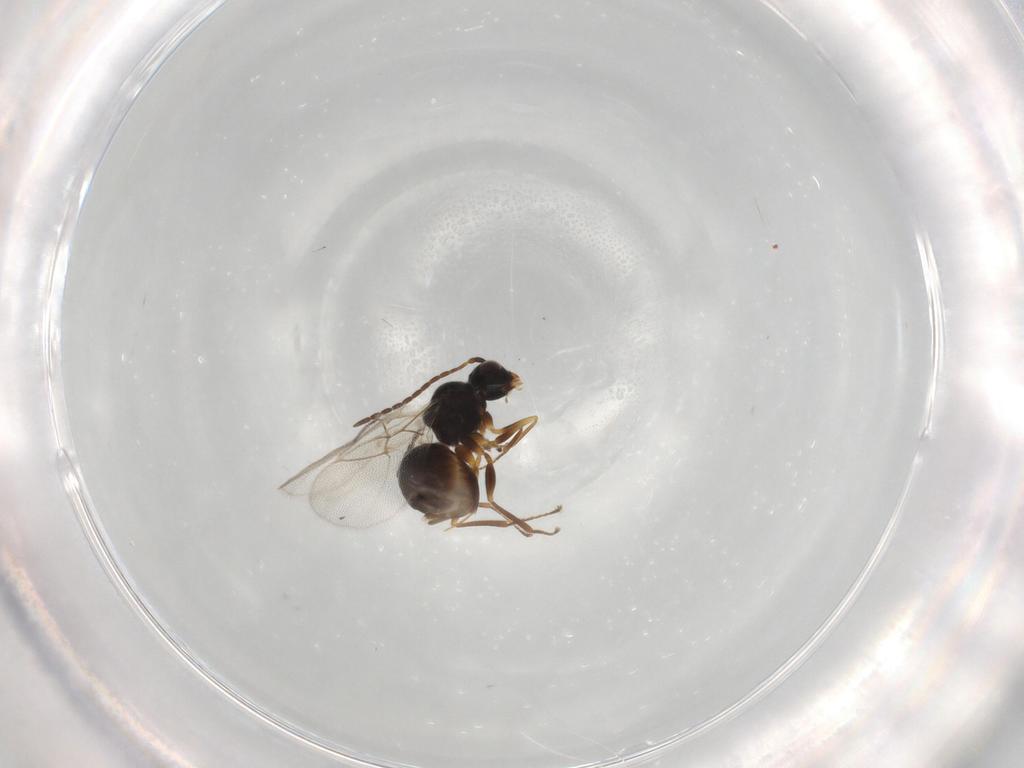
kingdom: Animalia
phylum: Arthropoda
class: Insecta
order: Hymenoptera
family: Figitidae
